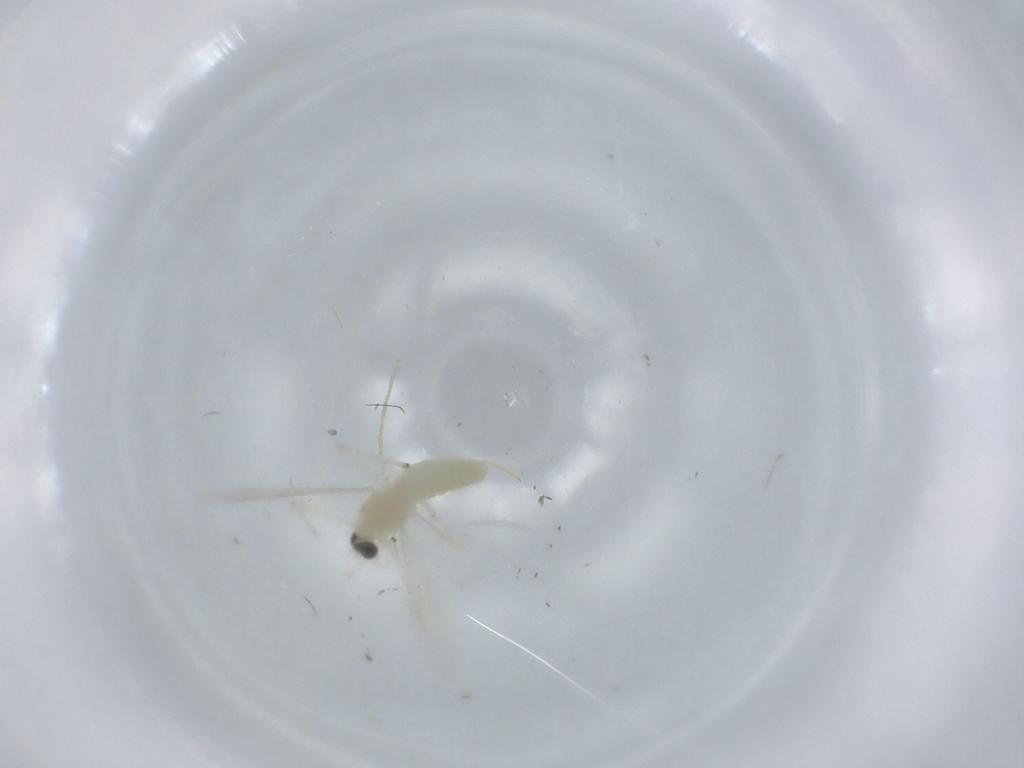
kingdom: Animalia
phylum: Arthropoda
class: Insecta
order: Diptera
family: Chironomidae
